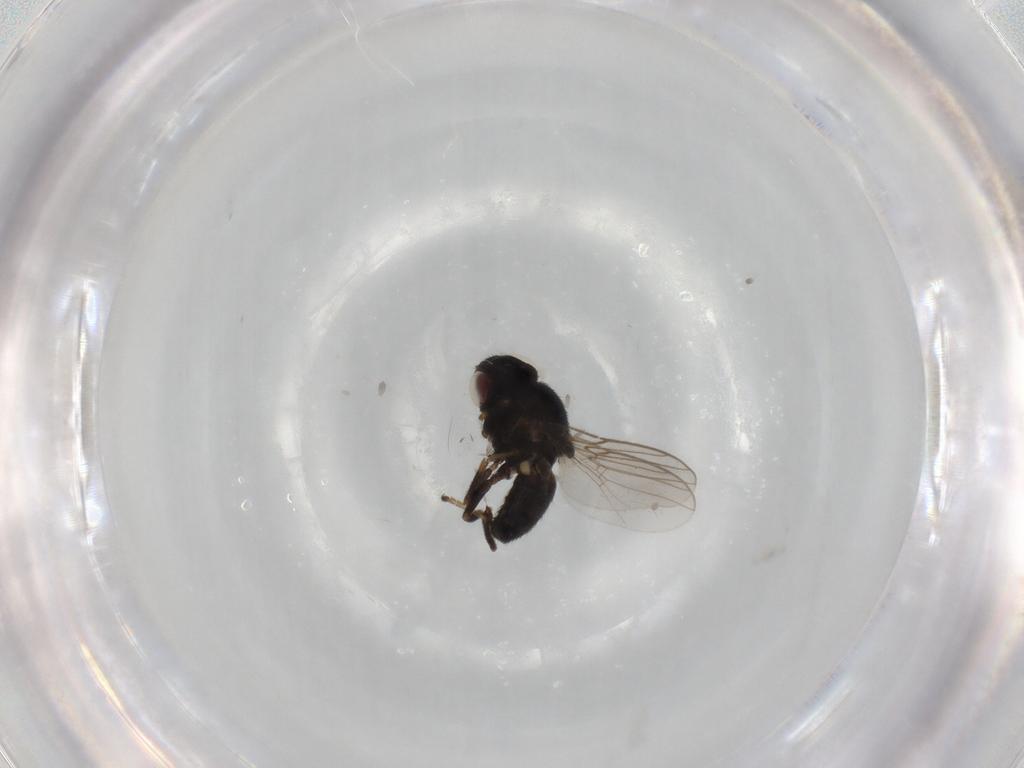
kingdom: Animalia
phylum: Arthropoda
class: Insecta
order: Diptera
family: Chloropidae
